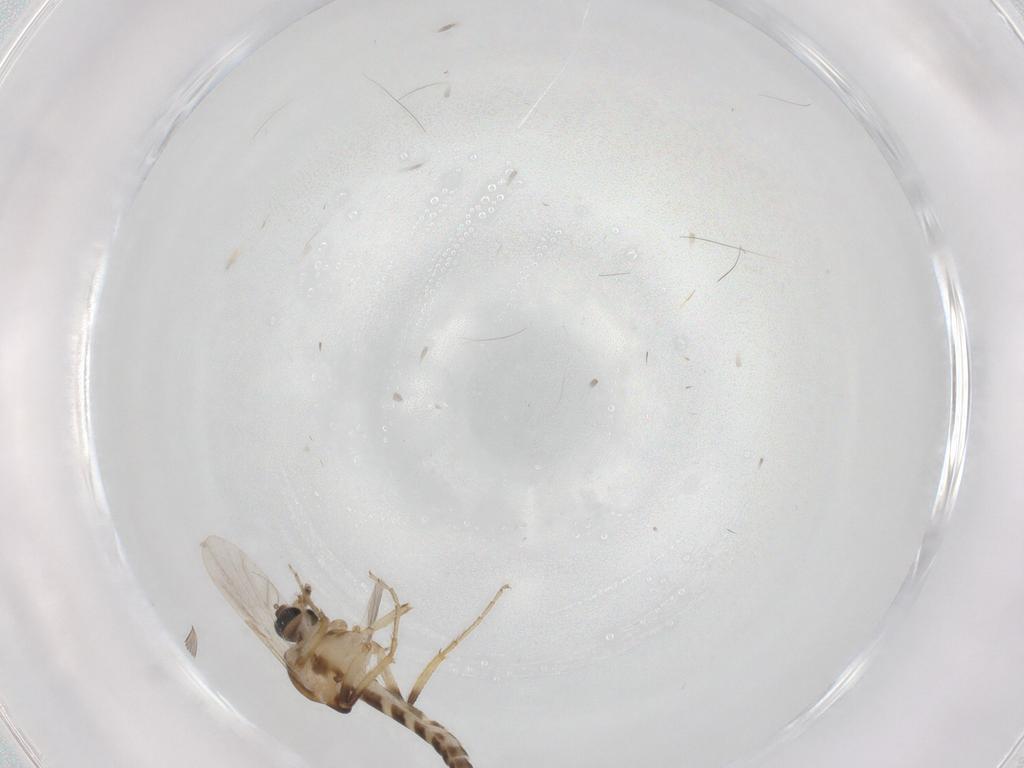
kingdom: Animalia
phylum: Arthropoda
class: Insecta
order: Diptera
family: Ceratopogonidae
